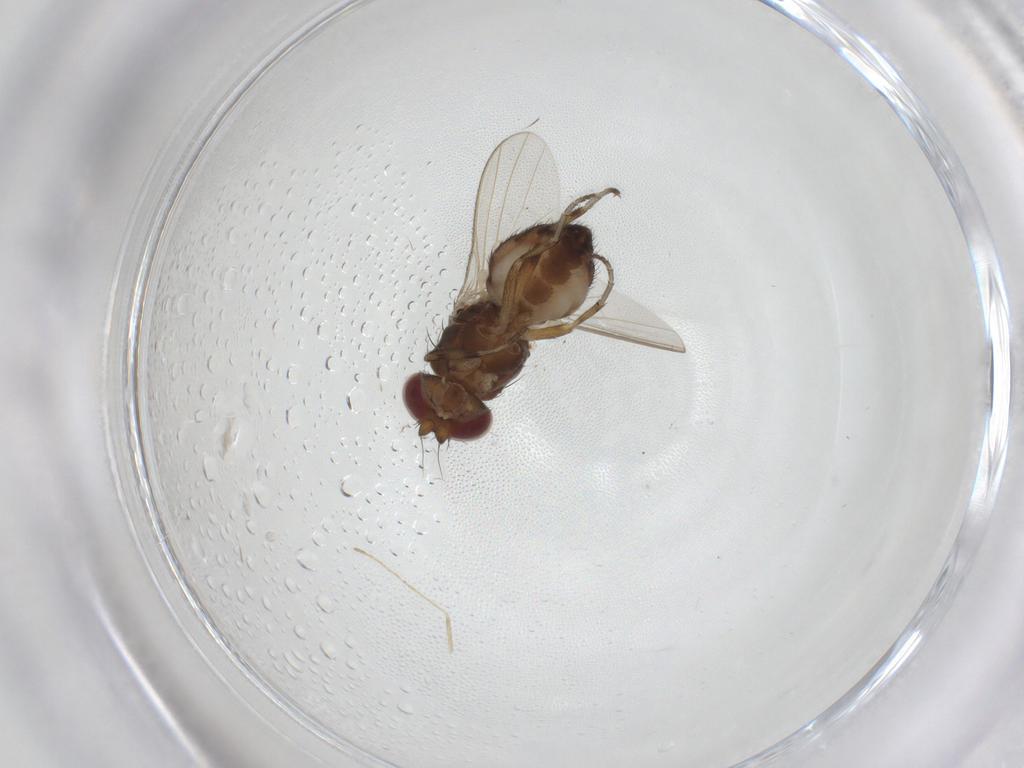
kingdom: Animalia
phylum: Arthropoda
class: Insecta
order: Diptera
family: Heleomyzidae
